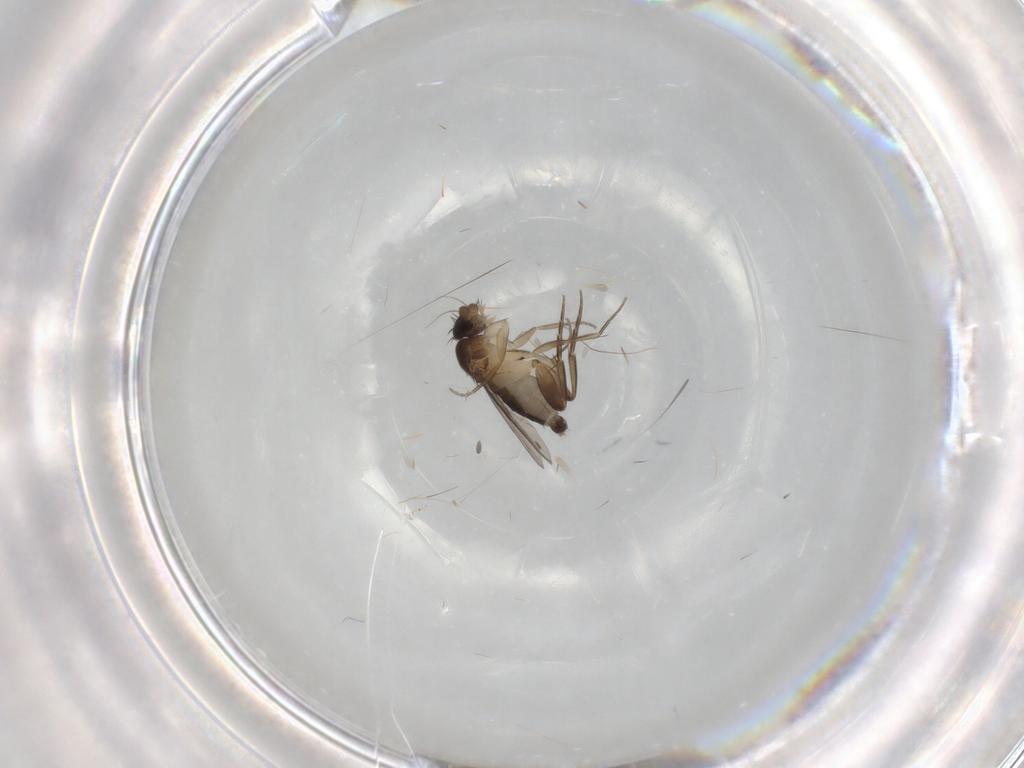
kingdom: Animalia
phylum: Arthropoda
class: Insecta
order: Diptera
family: Phoridae
